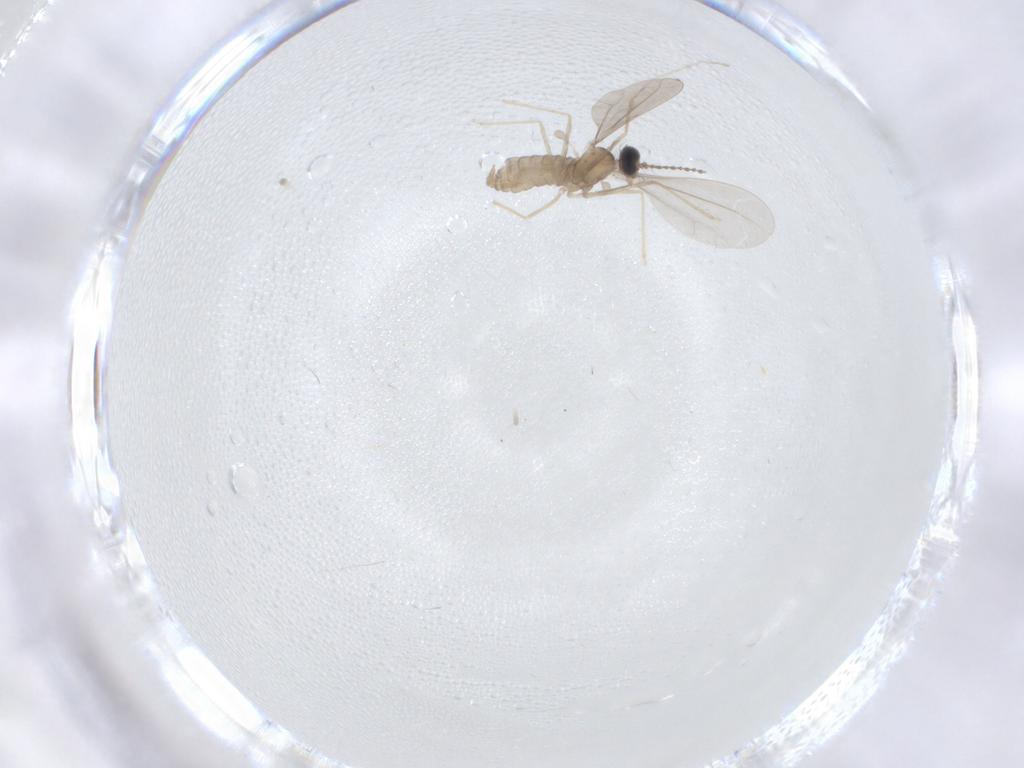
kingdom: Animalia
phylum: Arthropoda
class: Insecta
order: Diptera
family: Cecidomyiidae
